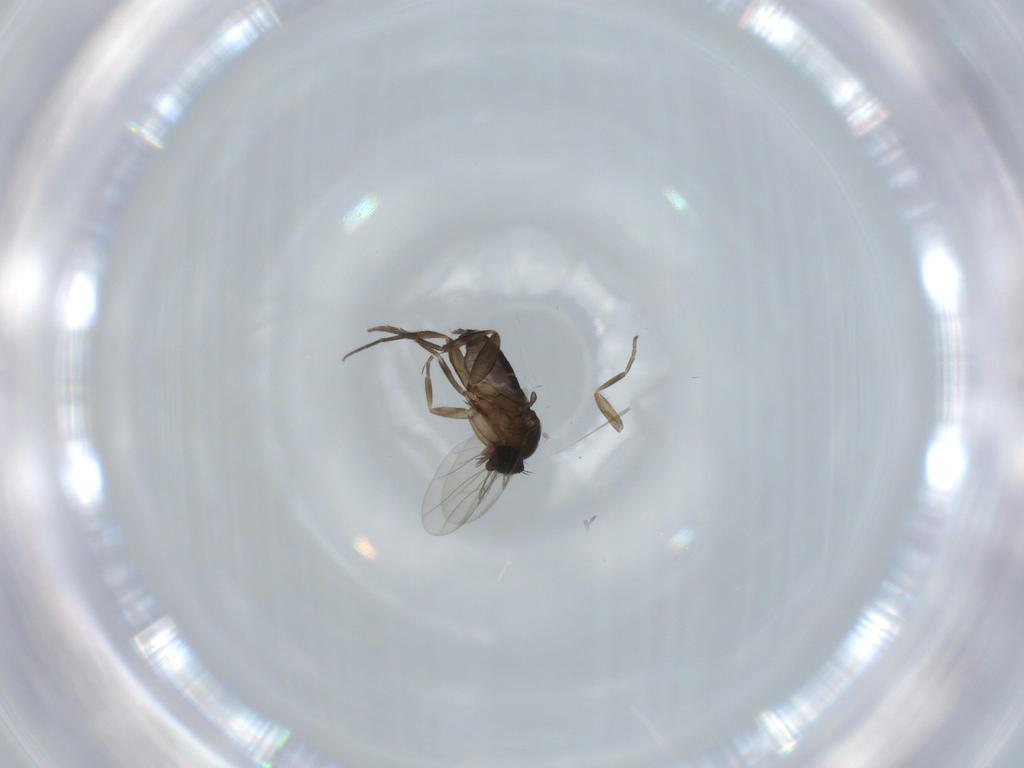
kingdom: Animalia
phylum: Arthropoda
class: Insecta
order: Diptera
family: Phoridae
